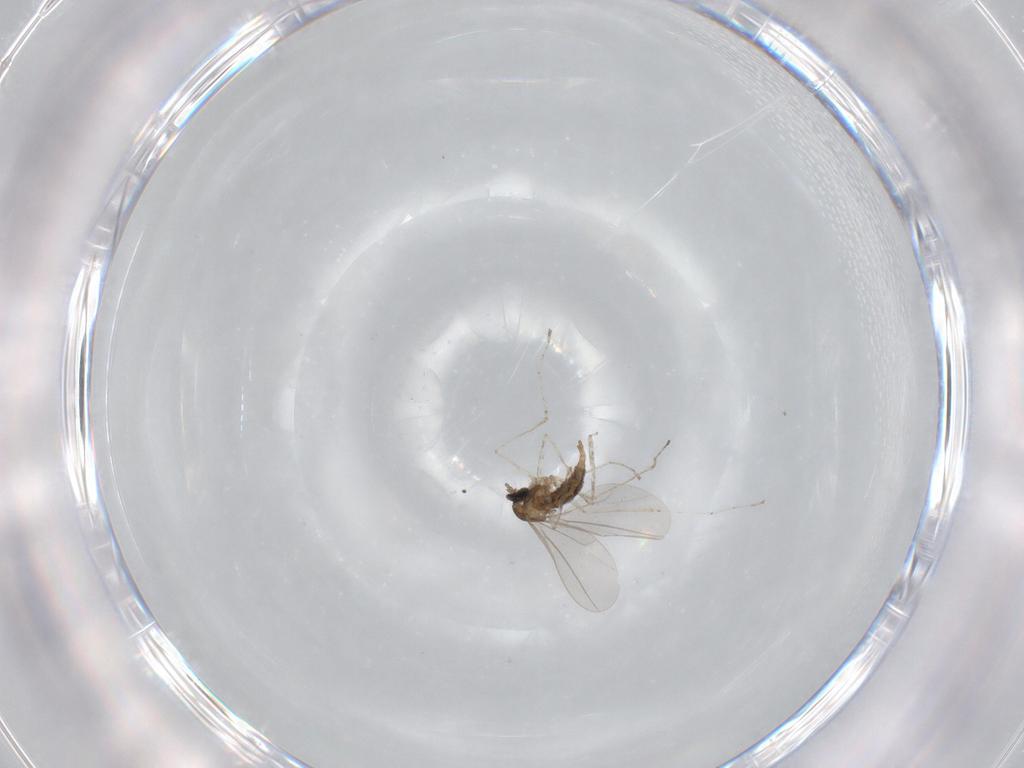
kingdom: Animalia
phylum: Arthropoda
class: Insecta
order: Diptera
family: Cecidomyiidae
